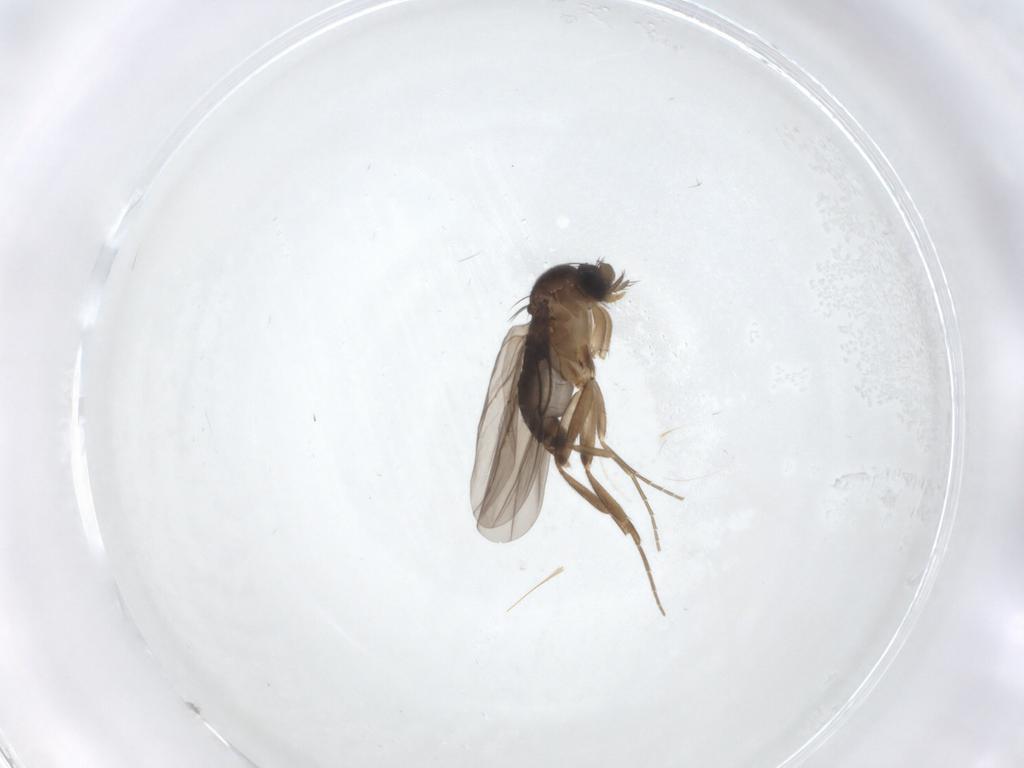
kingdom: Animalia
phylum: Arthropoda
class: Insecta
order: Diptera
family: Phoridae
